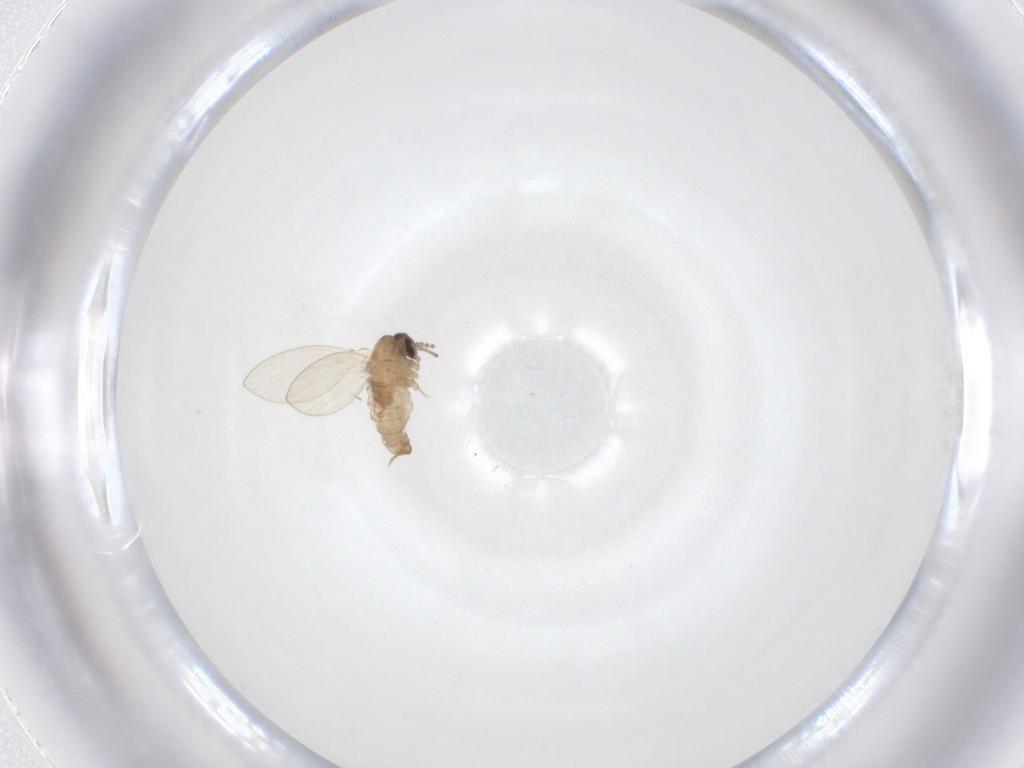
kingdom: Animalia
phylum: Arthropoda
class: Insecta
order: Diptera
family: Psychodidae
